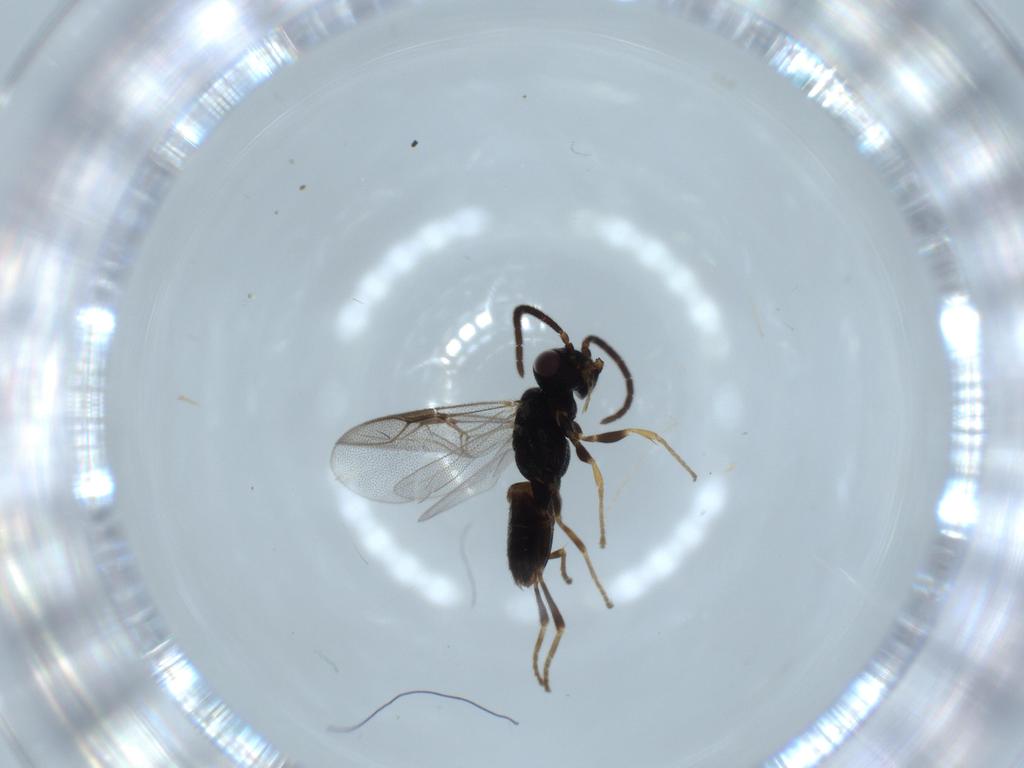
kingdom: Animalia
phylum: Arthropoda
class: Insecta
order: Hymenoptera
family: Dryinidae
